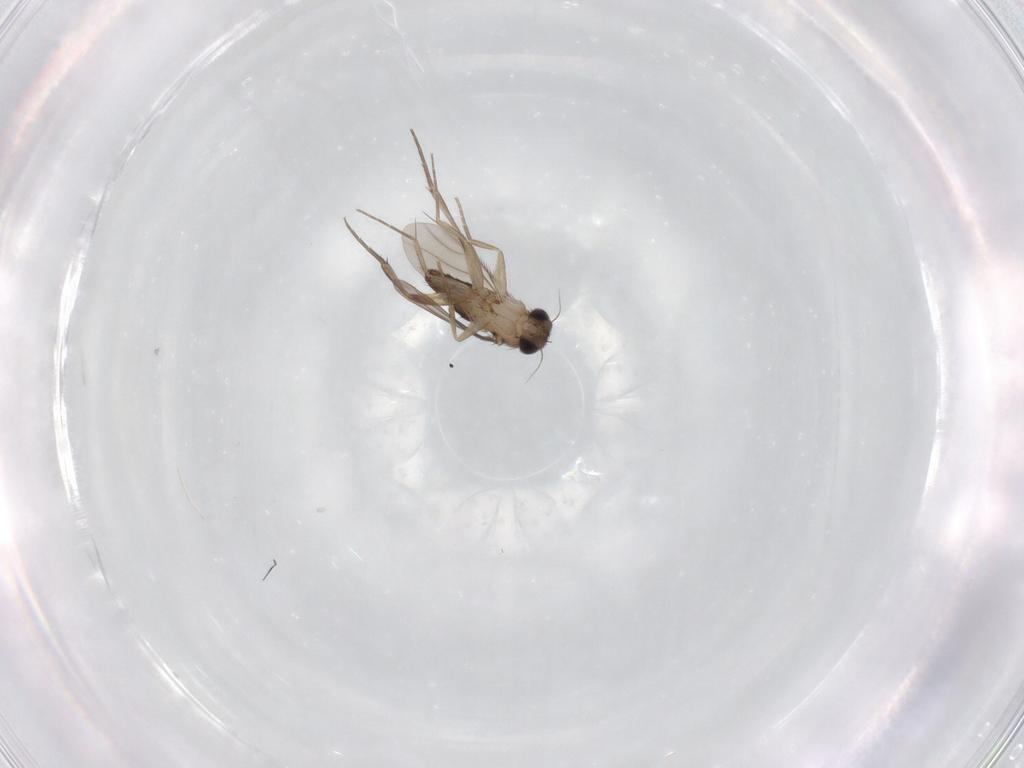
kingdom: Animalia
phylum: Arthropoda
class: Insecta
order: Diptera
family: Phoridae
